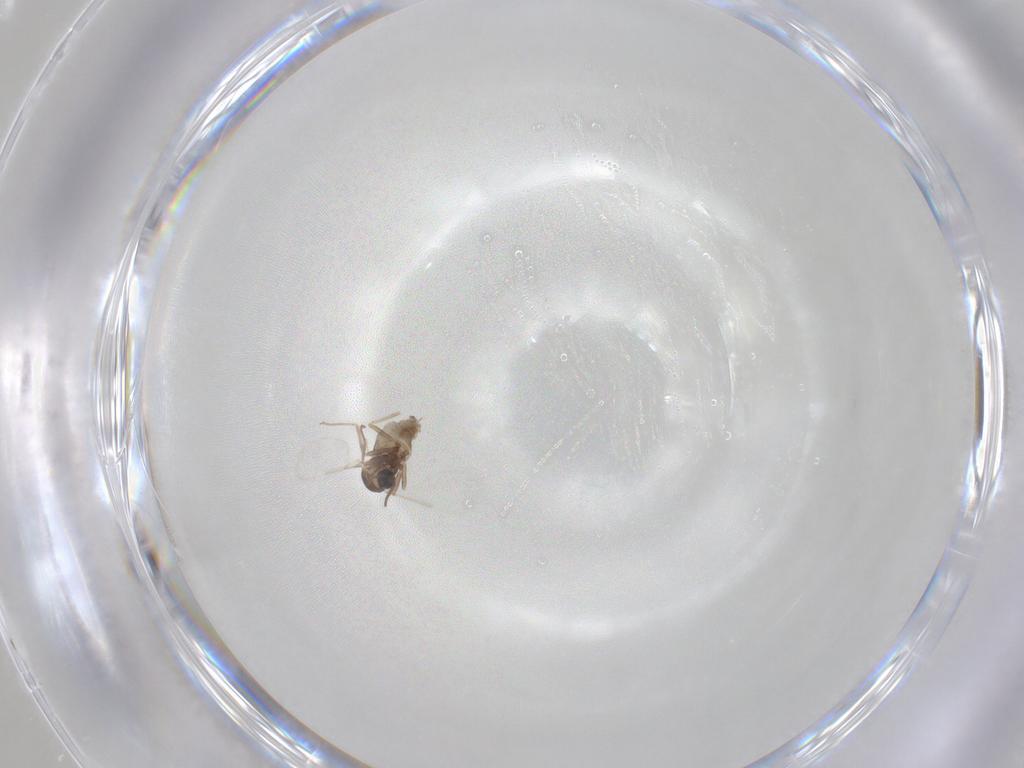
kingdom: Animalia
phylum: Arthropoda
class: Insecta
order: Diptera
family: Cecidomyiidae
